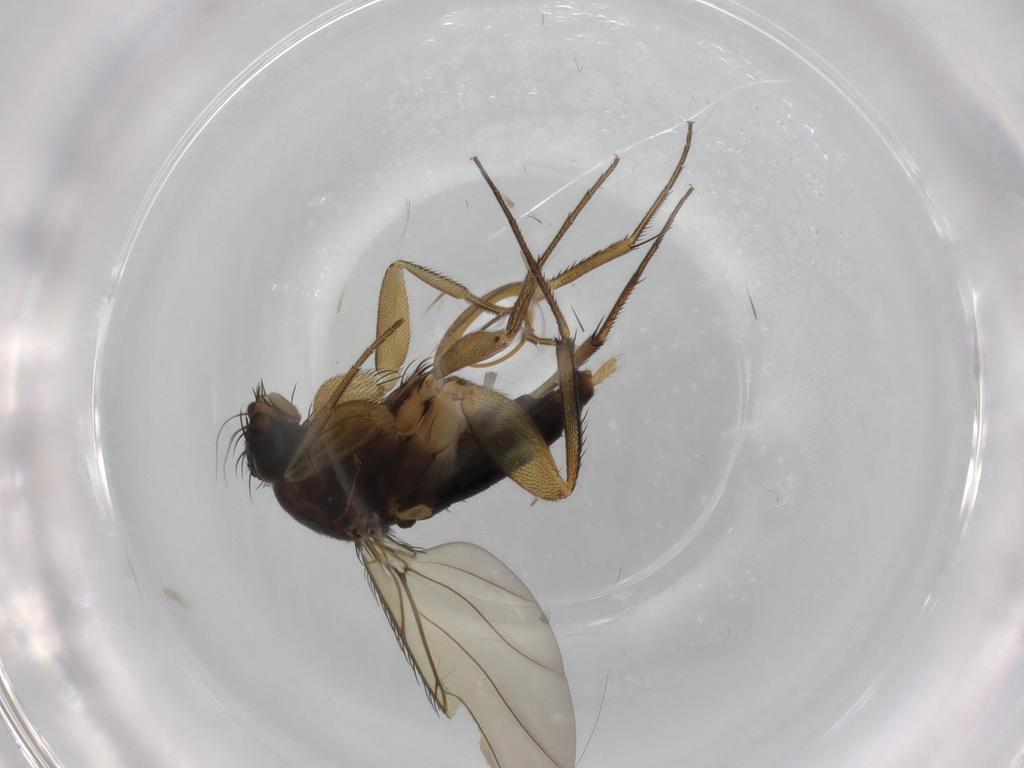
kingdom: Animalia
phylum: Arthropoda
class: Insecta
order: Diptera
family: Phoridae
